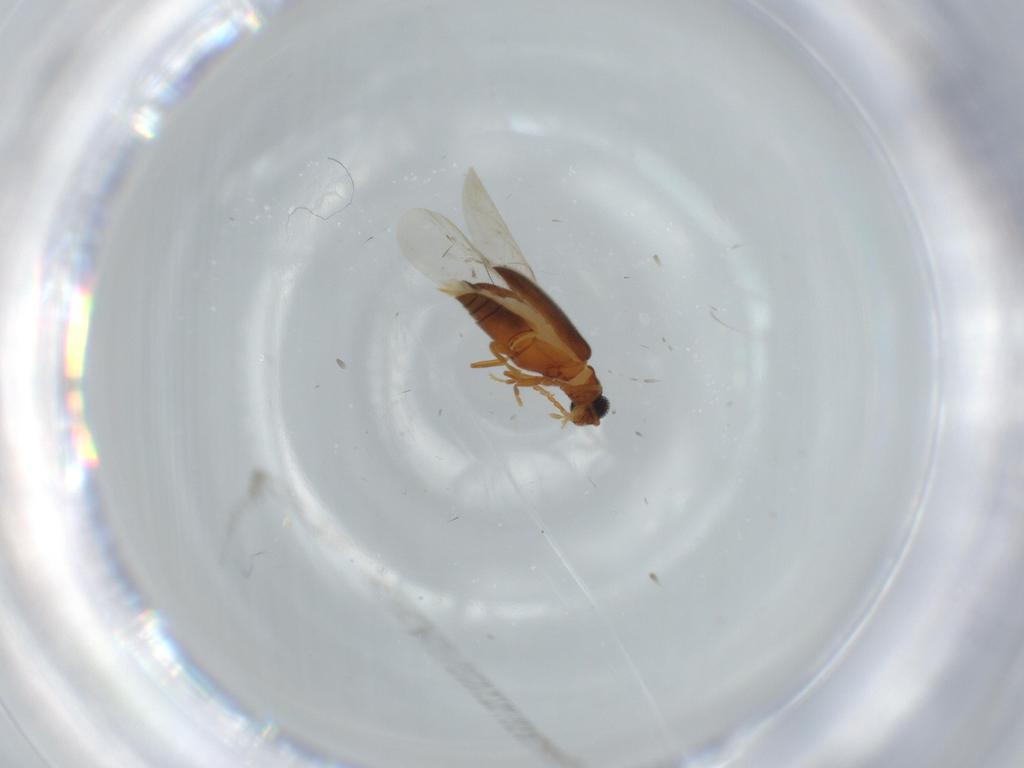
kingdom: Animalia
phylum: Arthropoda
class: Insecta
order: Coleoptera
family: Aderidae
